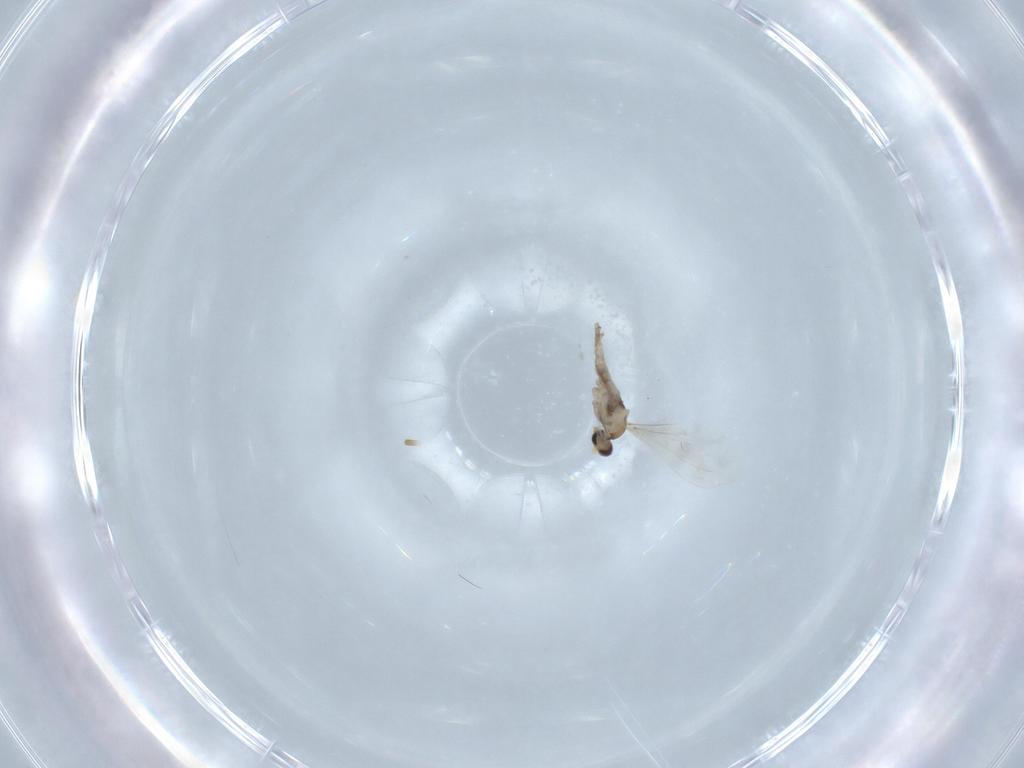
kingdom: Animalia
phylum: Arthropoda
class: Insecta
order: Diptera
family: Cecidomyiidae
